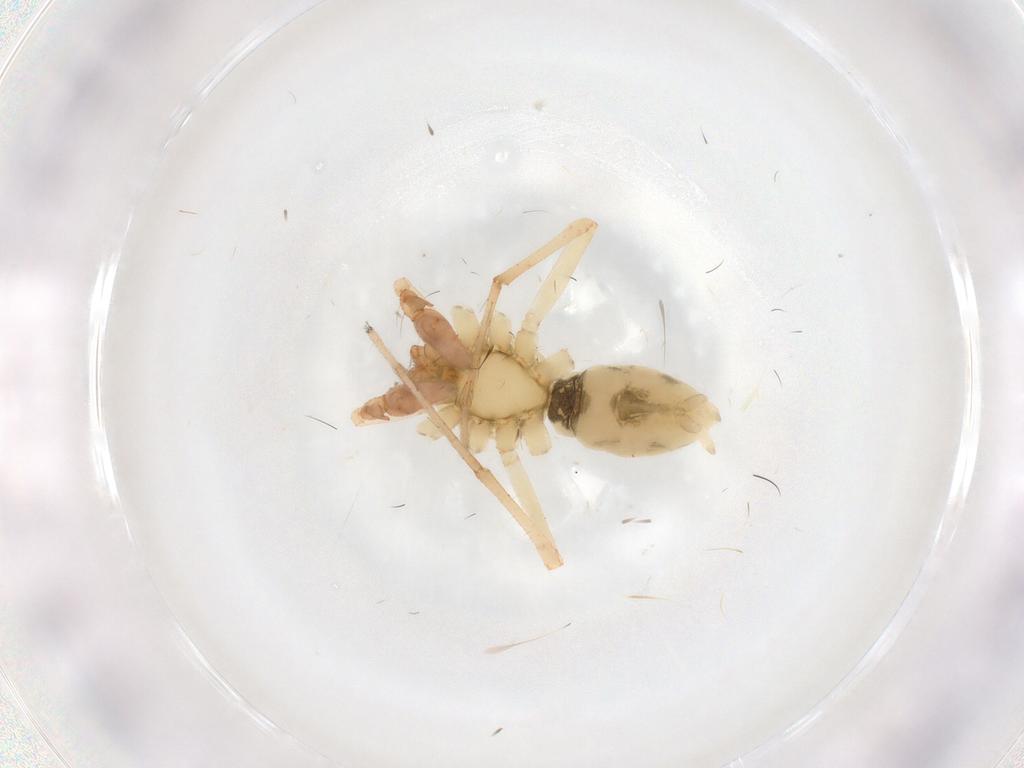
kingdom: Animalia
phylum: Arthropoda
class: Arachnida
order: Araneae
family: Anyphaenidae
